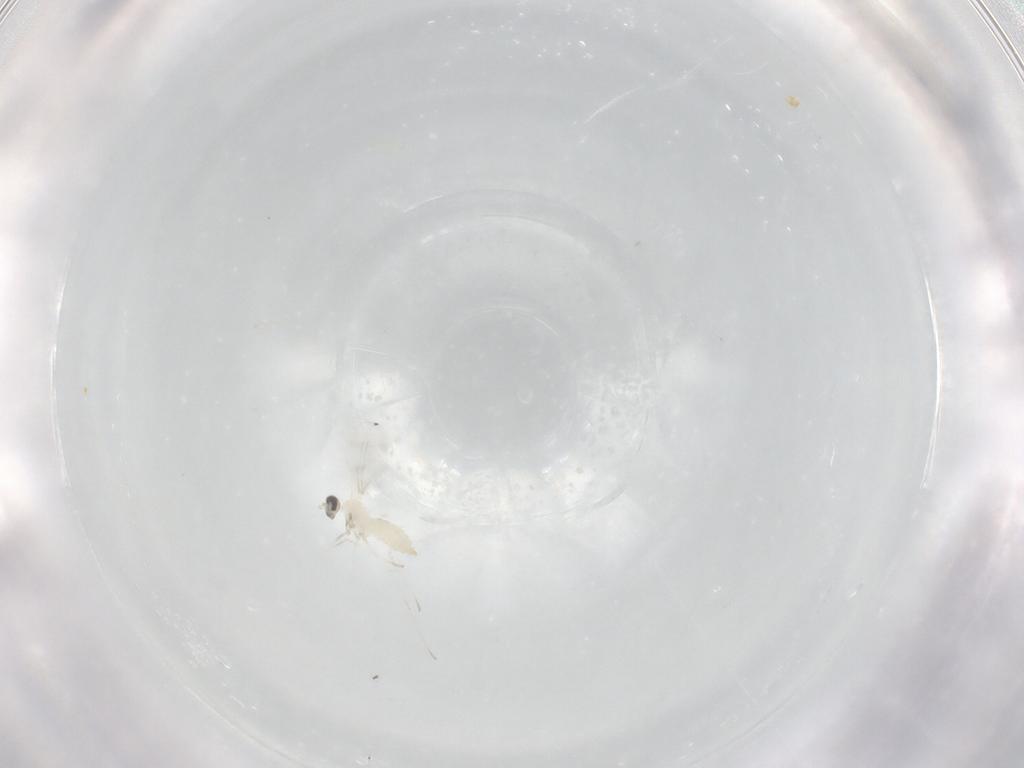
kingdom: Animalia
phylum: Arthropoda
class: Insecta
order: Diptera
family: Cecidomyiidae
